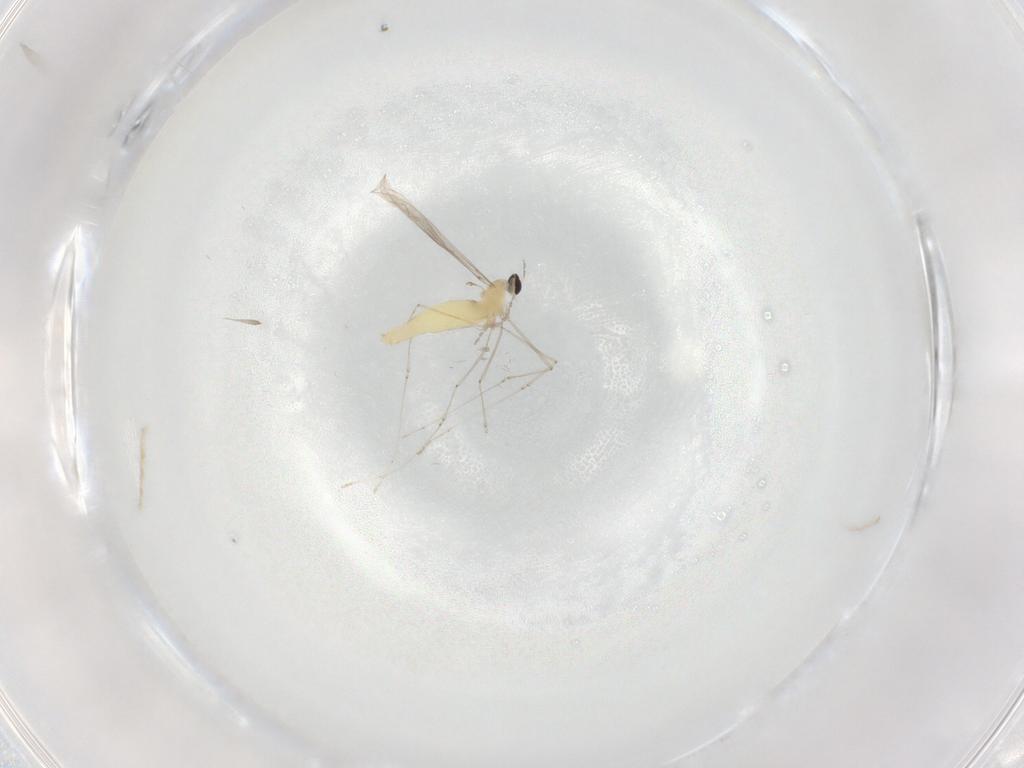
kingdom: Animalia
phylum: Arthropoda
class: Insecta
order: Diptera
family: Cecidomyiidae
